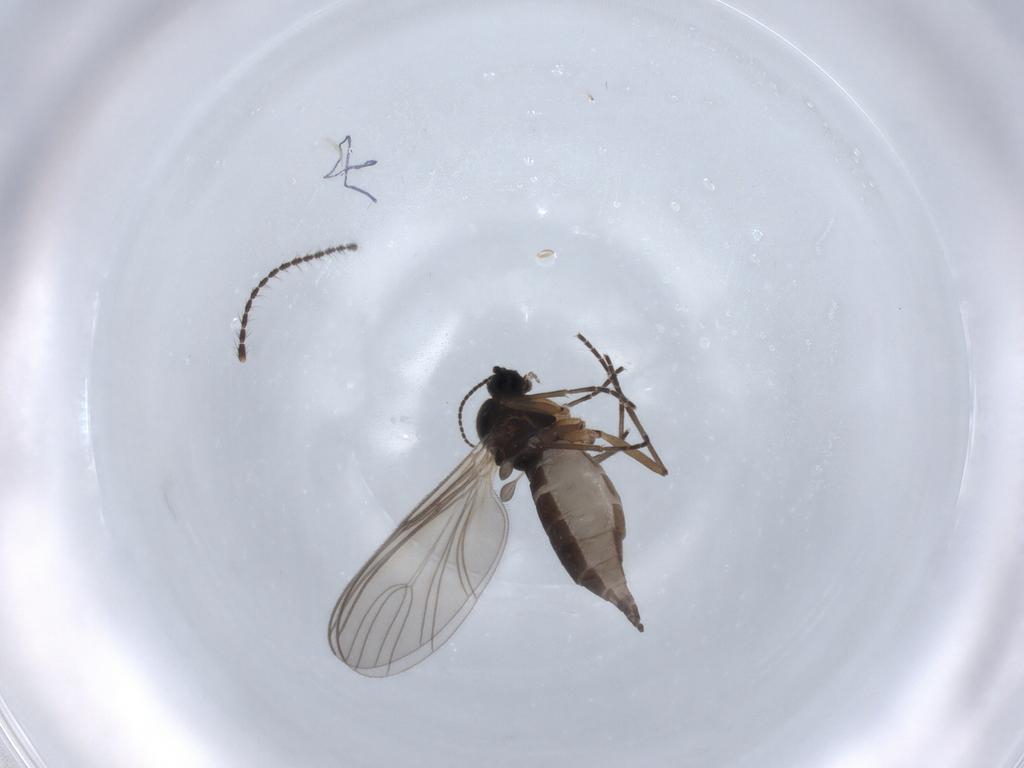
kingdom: Animalia
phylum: Arthropoda
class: Insecta
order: Diptera
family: Sciaridae
